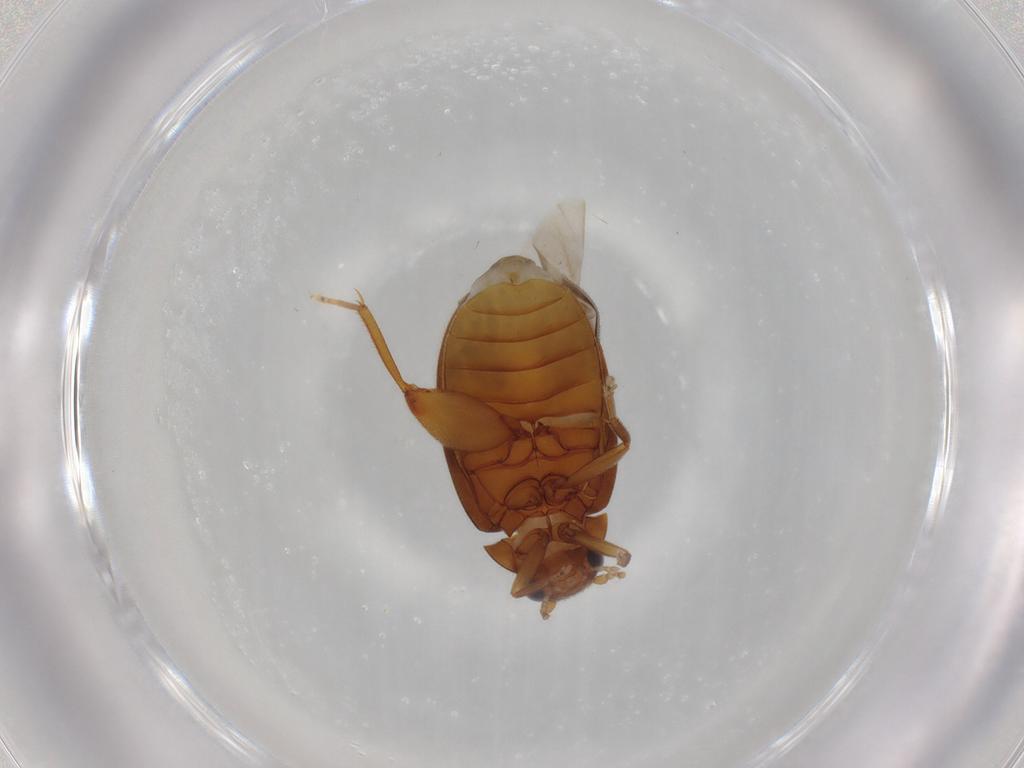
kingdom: Animalia
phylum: Arthropoda
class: Insecta
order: Coleoptera
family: Scirtidae
